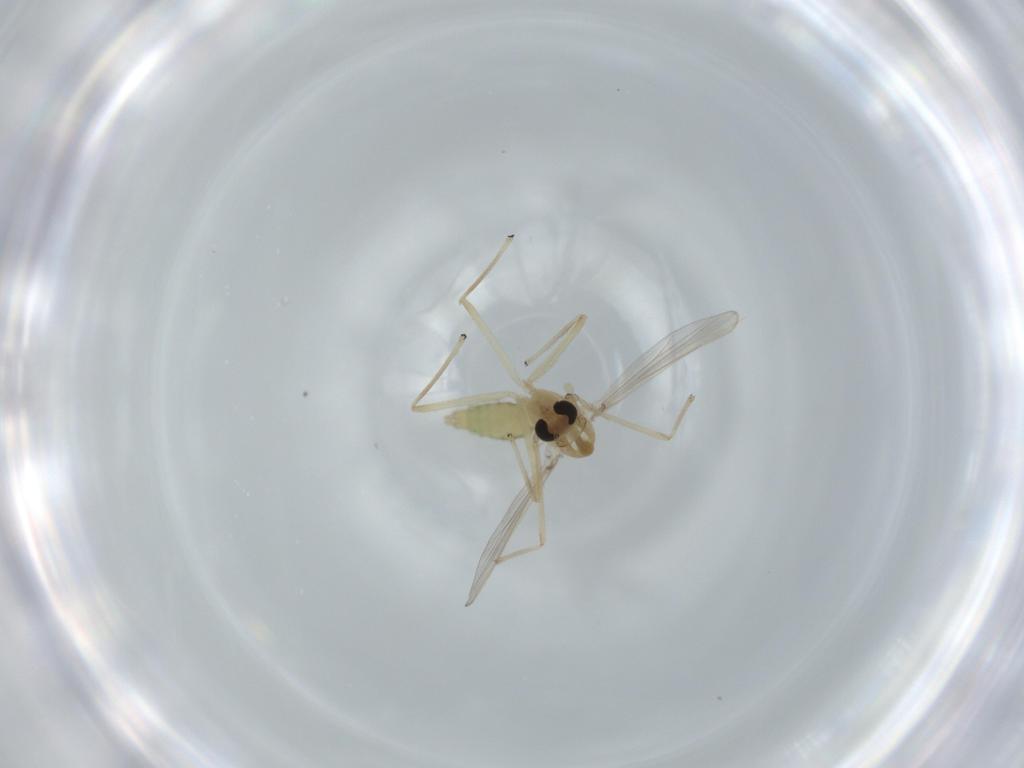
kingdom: Animalia
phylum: Arthropoda
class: Insecta
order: Diptera
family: Chironomidae
